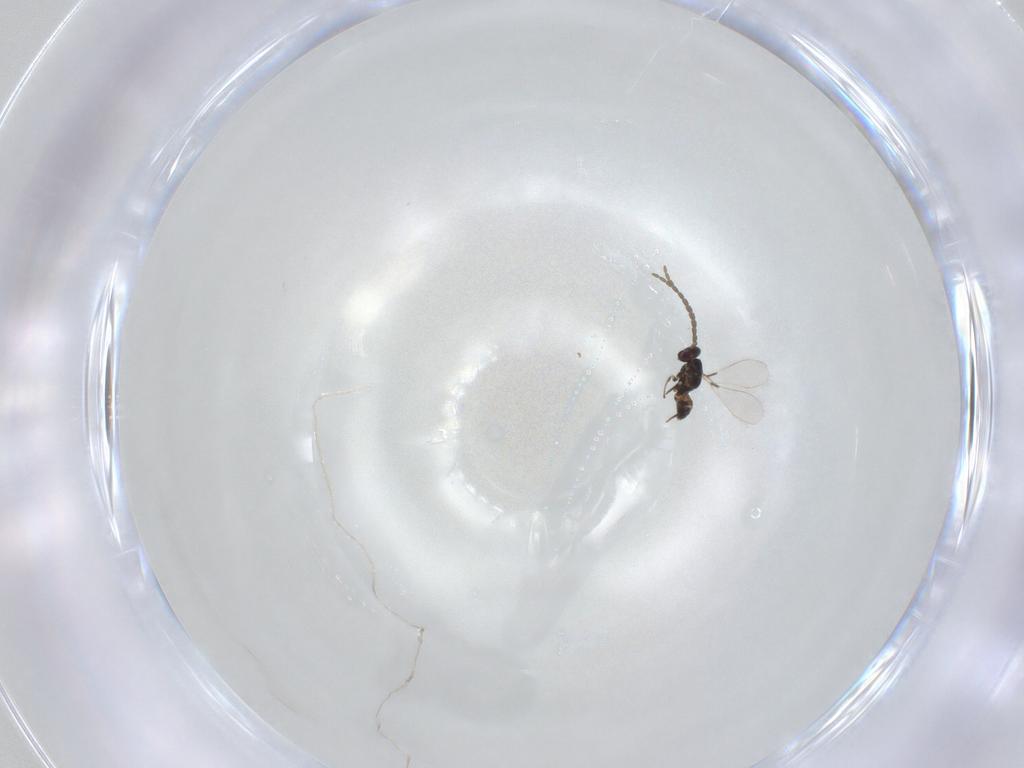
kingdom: Animalia
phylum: Arthropoda
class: Insecta
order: Hymenoptera
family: Mymaridae
